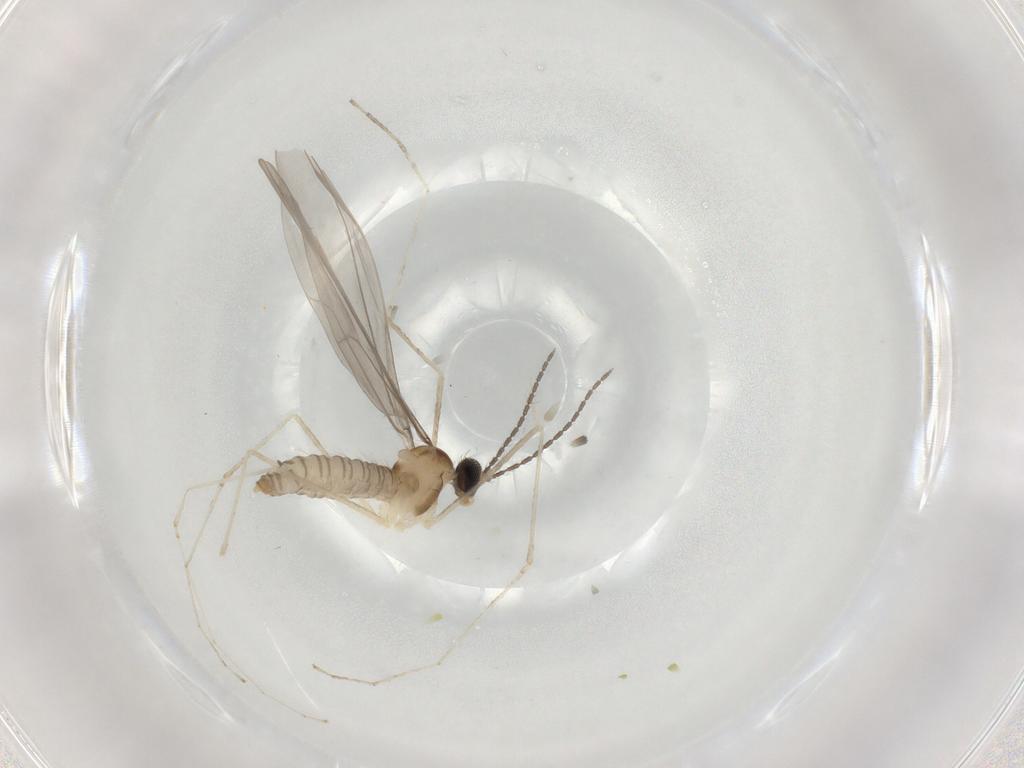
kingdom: Animalia
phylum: Arthropoda
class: Insecta
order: Diptera
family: Cecidomyiidae
